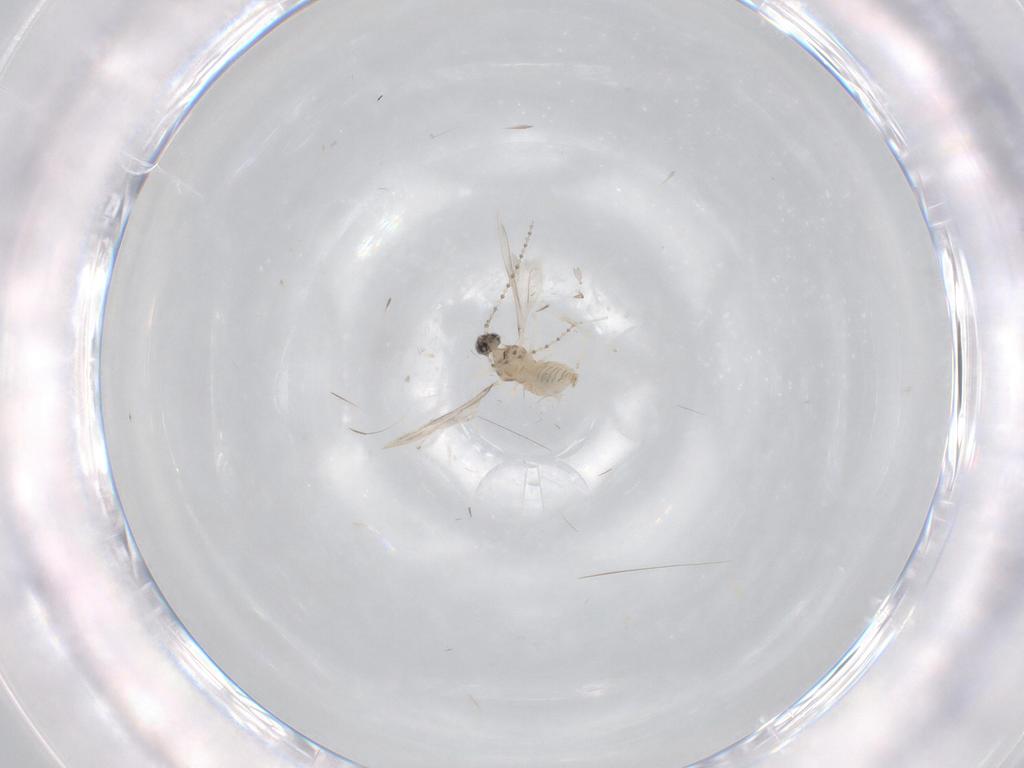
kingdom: Animalia
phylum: Arthropoda
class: Insecta
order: Diptera
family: Cecidomyiidae
